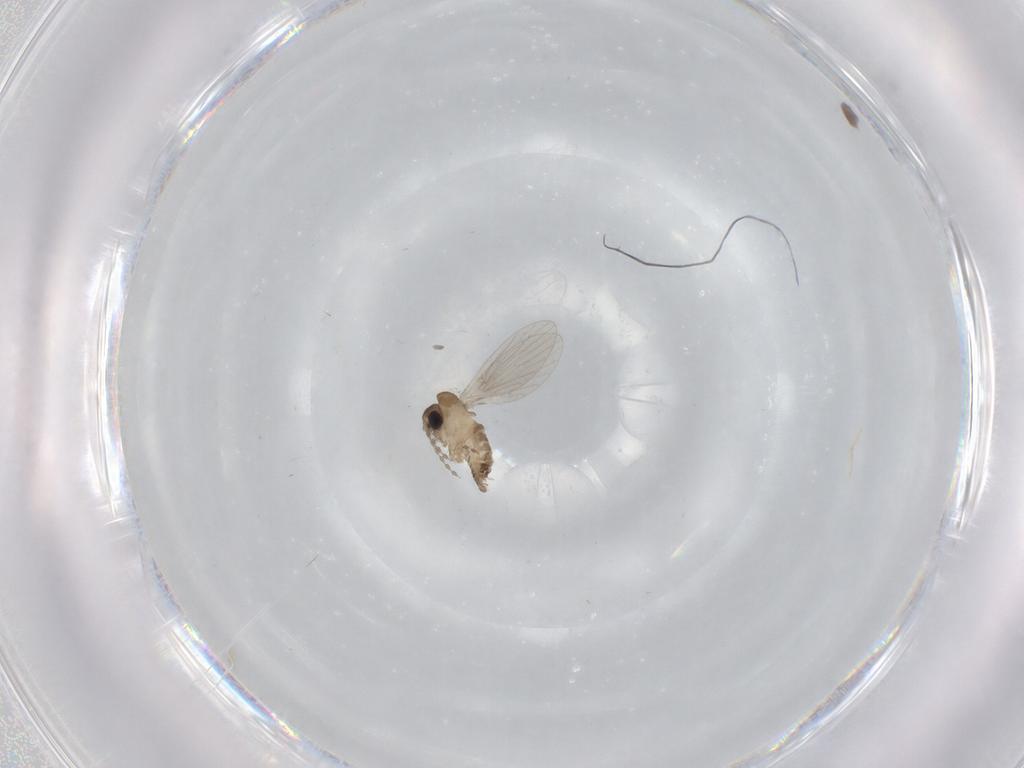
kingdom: Animalia
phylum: Arthropoda
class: Insecta
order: Diptera
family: Psychodidae
